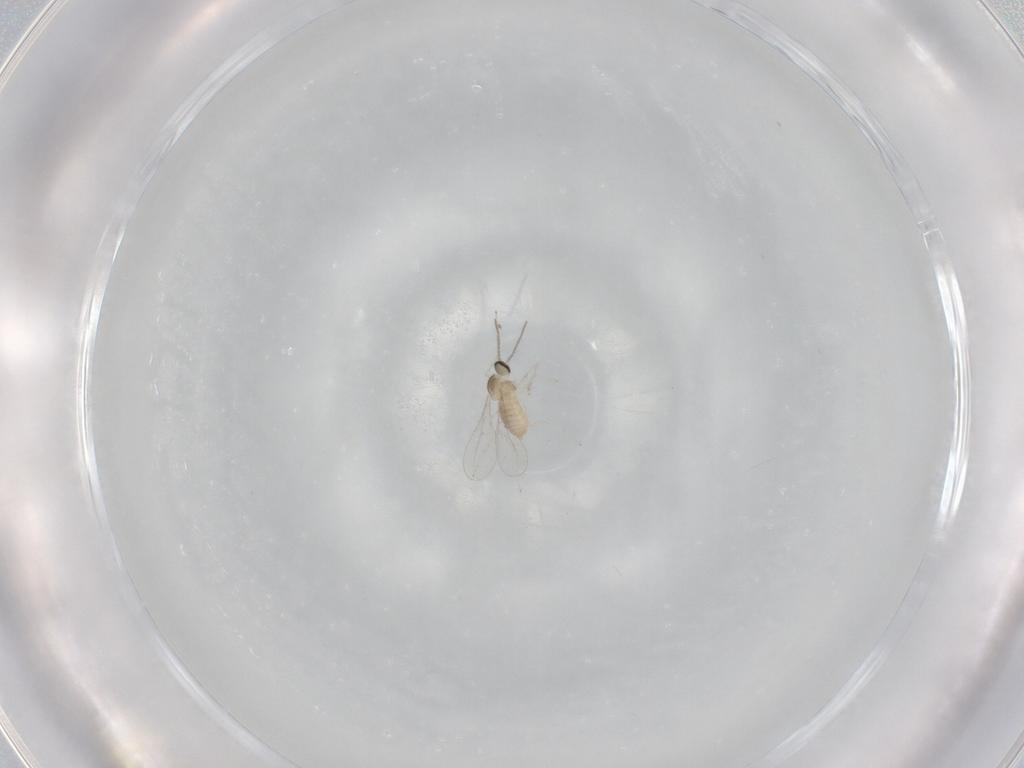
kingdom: Animalia
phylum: Arthropoda
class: Insecta
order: Diptera
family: Cecidomyiidae
